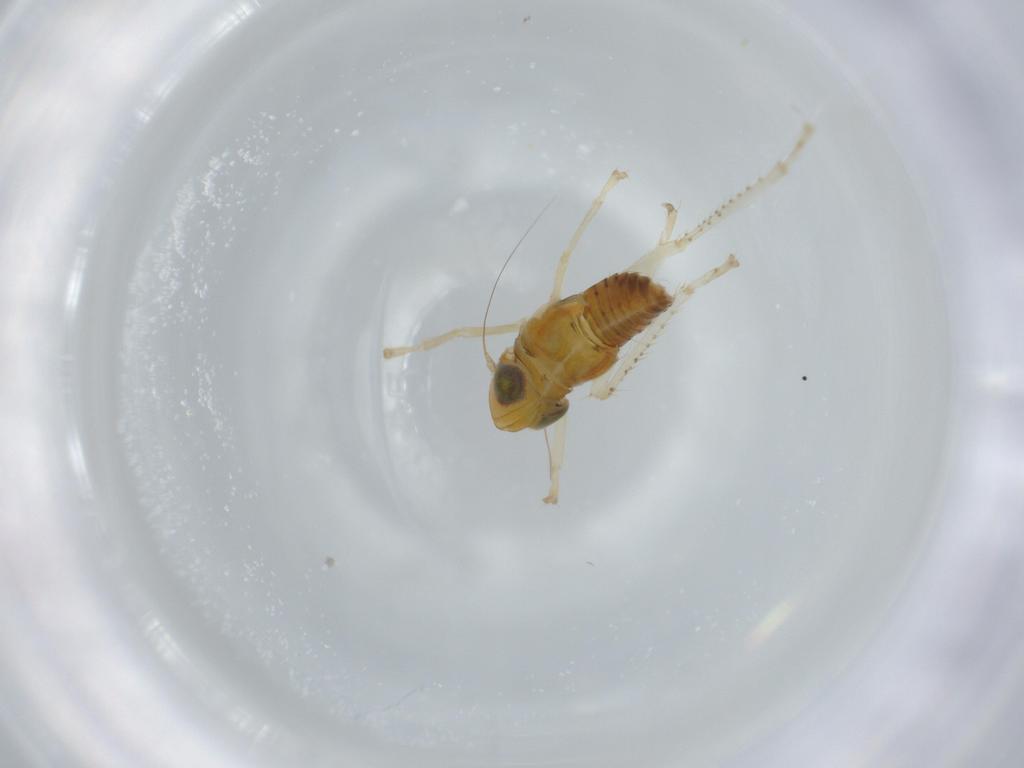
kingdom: Animalia
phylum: Arthropoda
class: Insecta
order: Hemiptera
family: Cicadellidae
